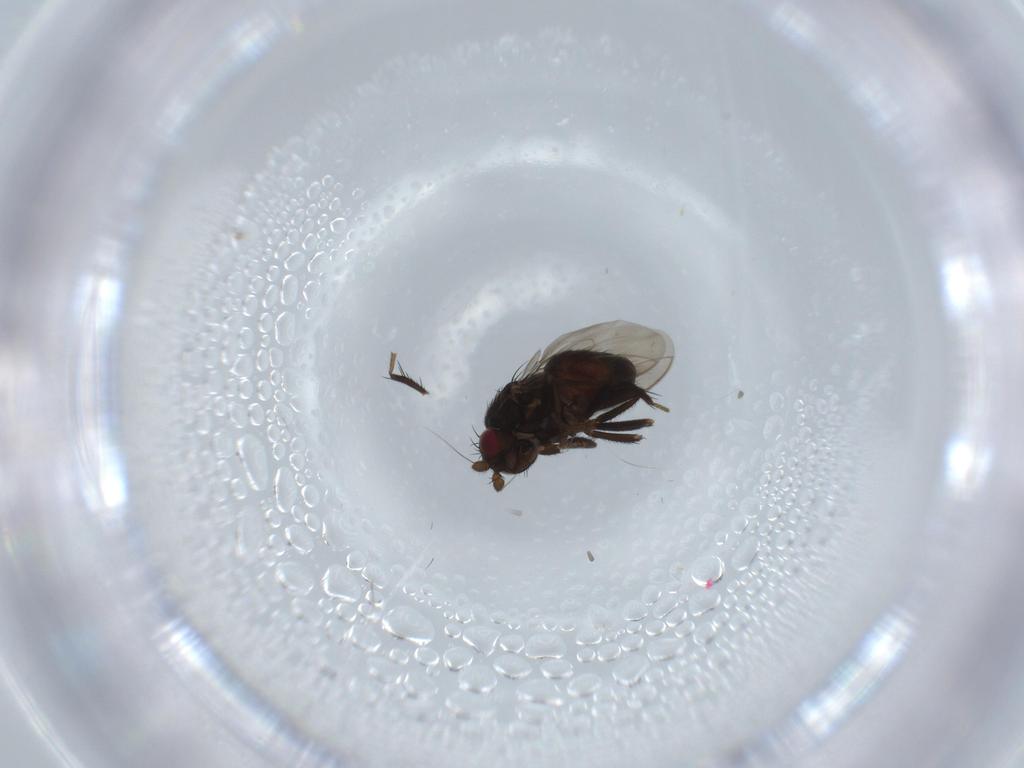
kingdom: Animalia
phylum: Arthropoda
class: Insecta
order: Diptera
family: Sphaeroceridae
